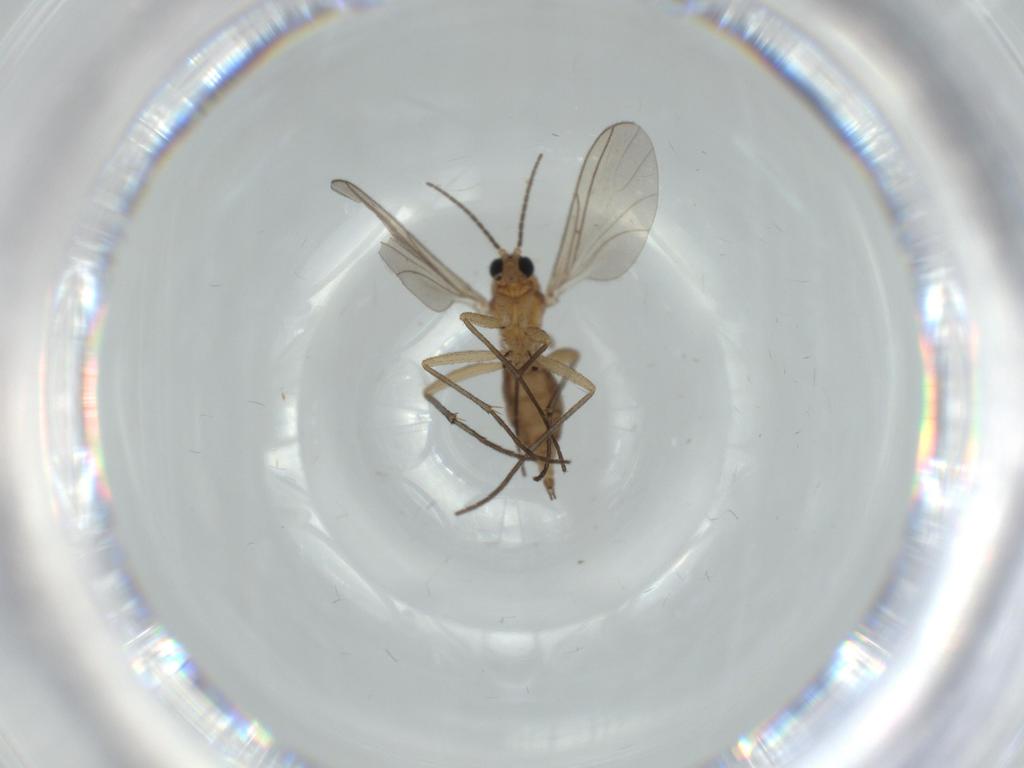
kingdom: Animalia
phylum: Arthropoda
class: Insecta
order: Diptera
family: Sciaridae
